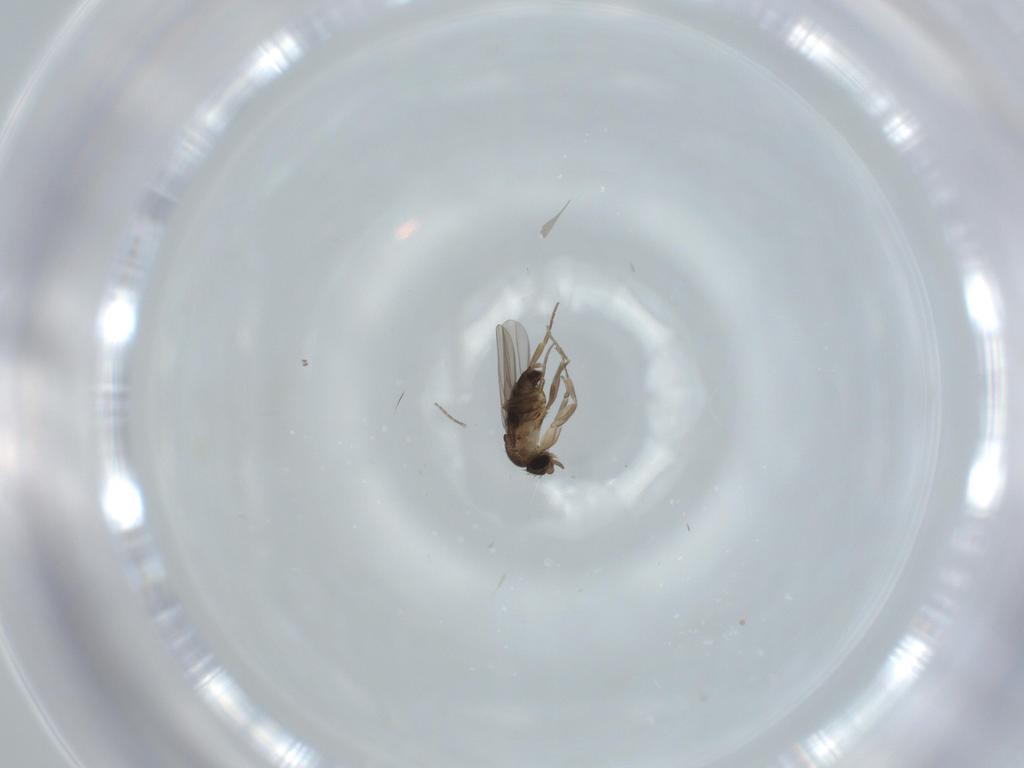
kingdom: Animalia
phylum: Arthropoda
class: Insecta
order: Diptera
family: Phoridae
